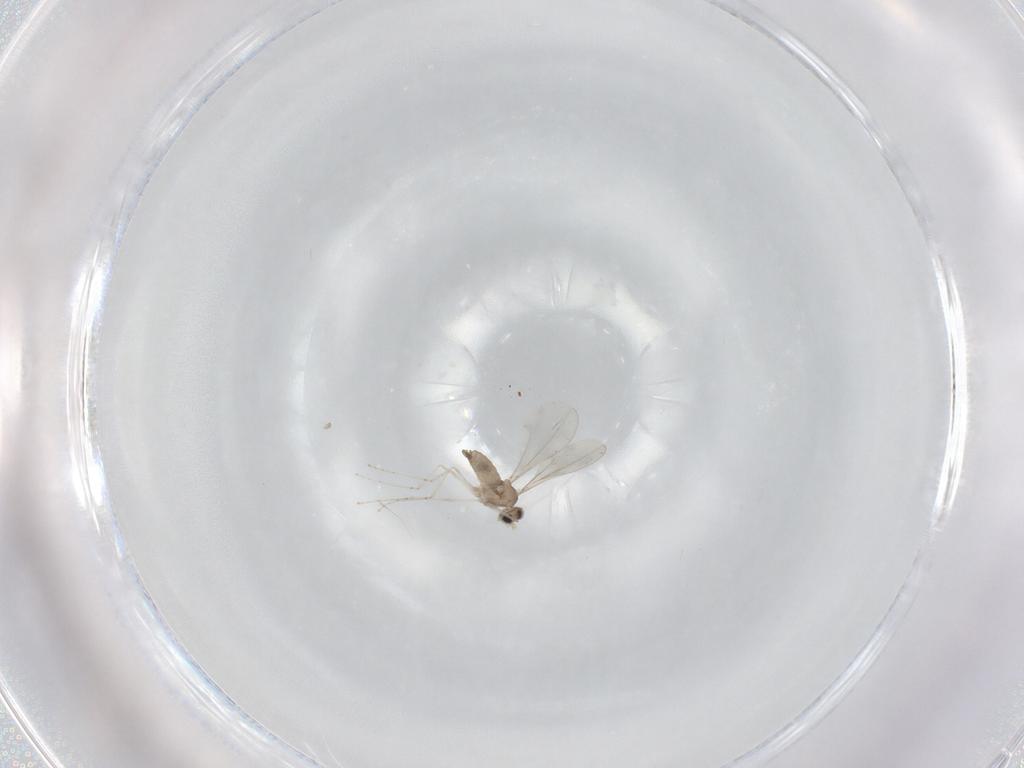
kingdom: Animalia
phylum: Arthropoda
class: Insecta
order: Diptera
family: Cecidomyiidae
